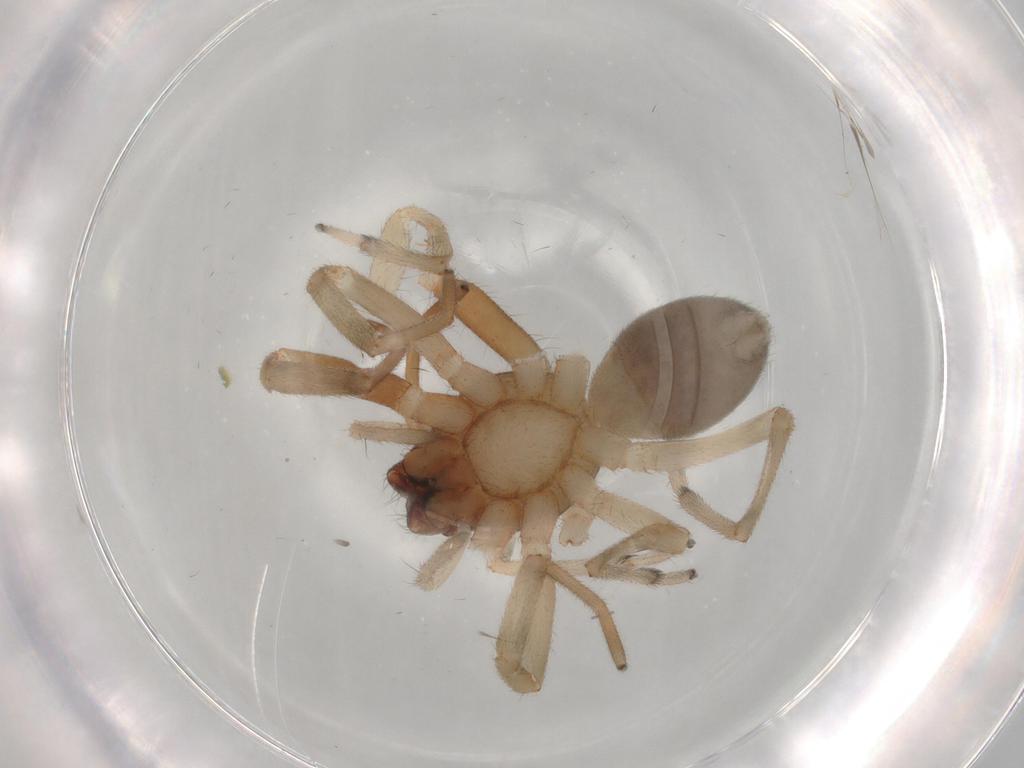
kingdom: Animalia
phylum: Arthropoda
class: Arachnida
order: Araneae
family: Trachelidae
